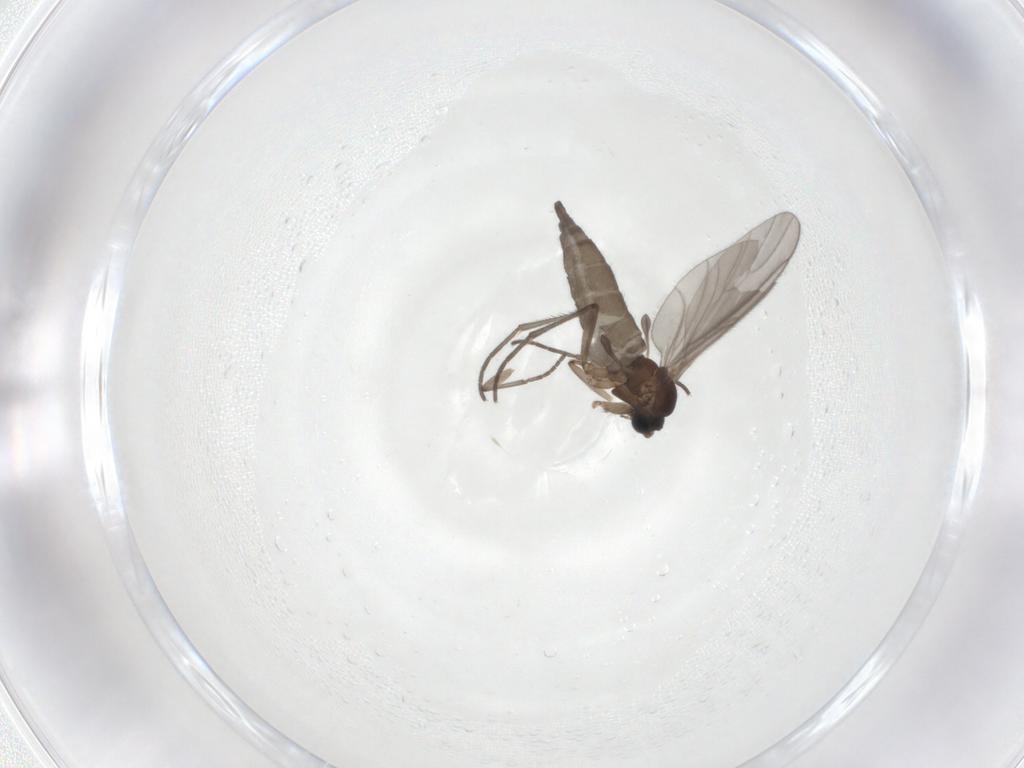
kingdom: Animalia
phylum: Arthropoda
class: Insecta
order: Diptera
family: Sciaridae
